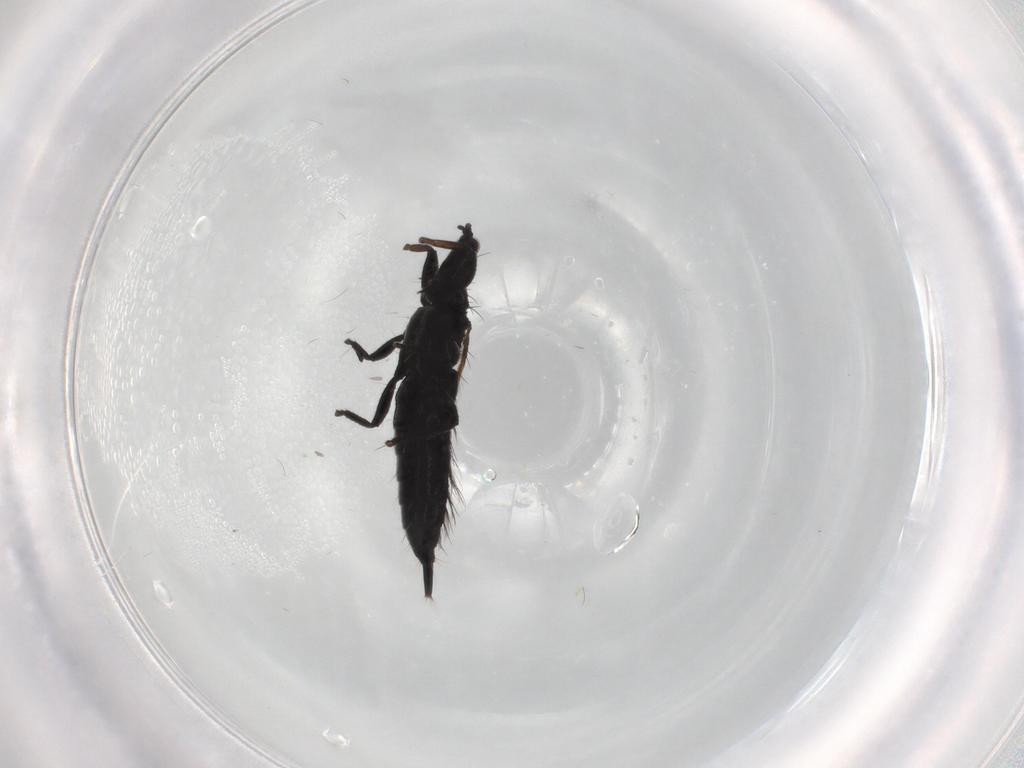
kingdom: Animalia
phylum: Arthropoda
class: Insecta
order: Thysanoptera
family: Phlaeothripidae
